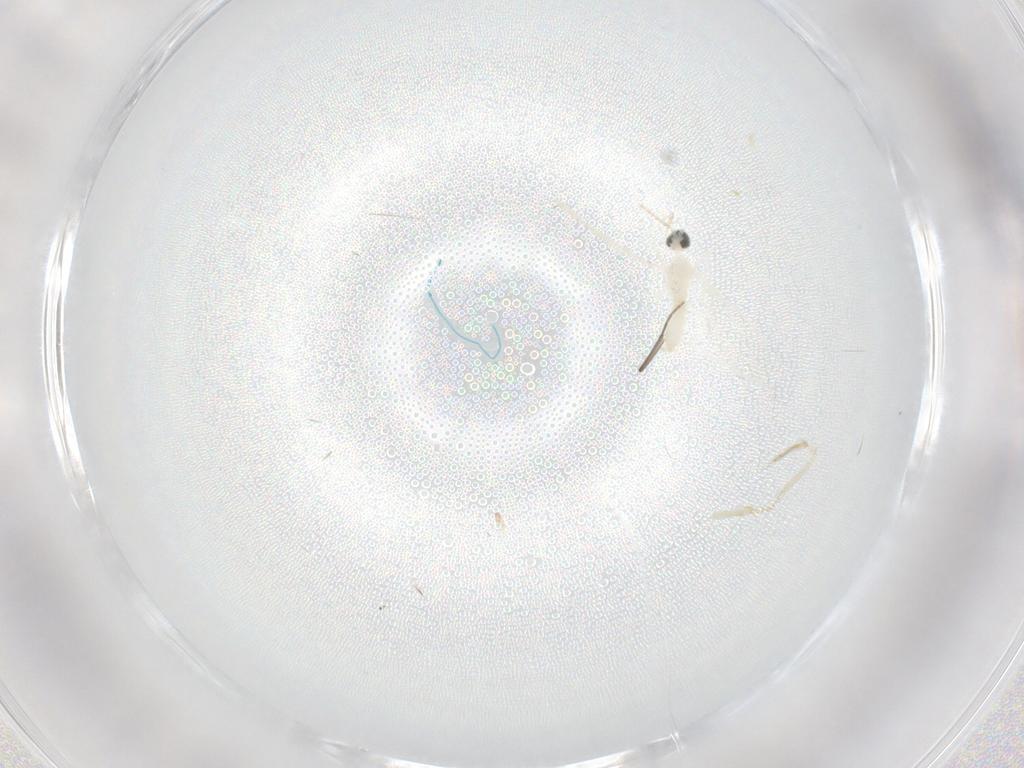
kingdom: Animalia
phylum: Arthropoda
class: Insecta
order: Diptera
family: Cecidomyiidae
